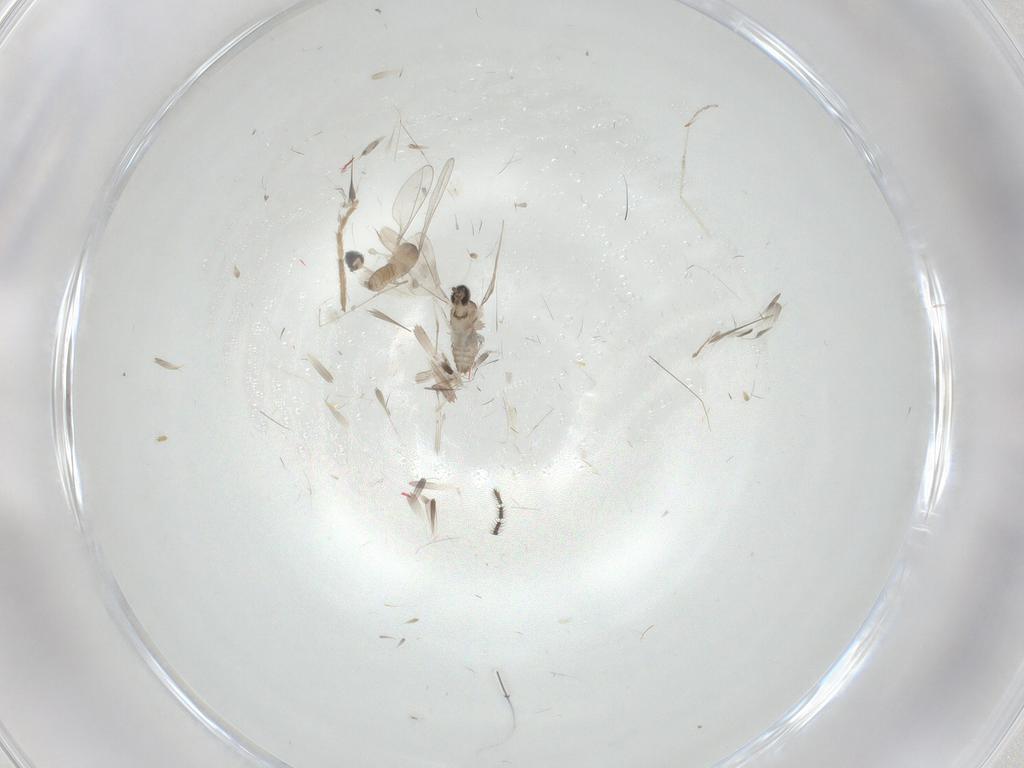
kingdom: Animalia
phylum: Arthropoda
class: Insecta
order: Diptera
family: Cecidomyiidae
